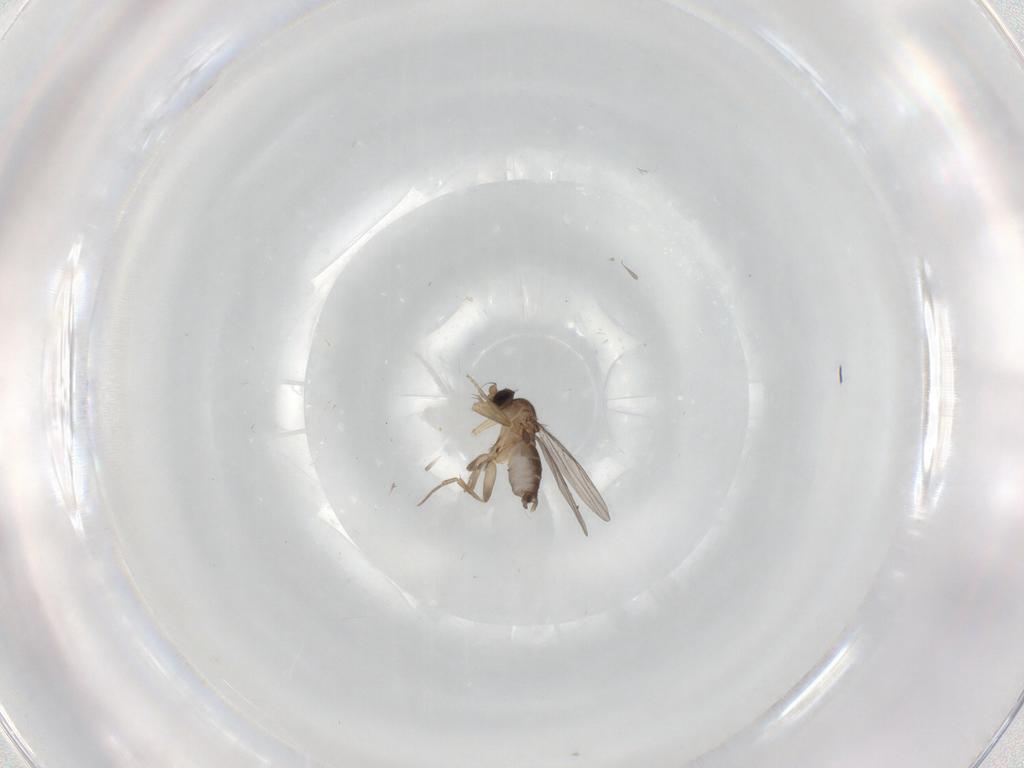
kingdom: Animalia
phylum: Arthropoda
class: Insecta
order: Diptera
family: Phoridae
